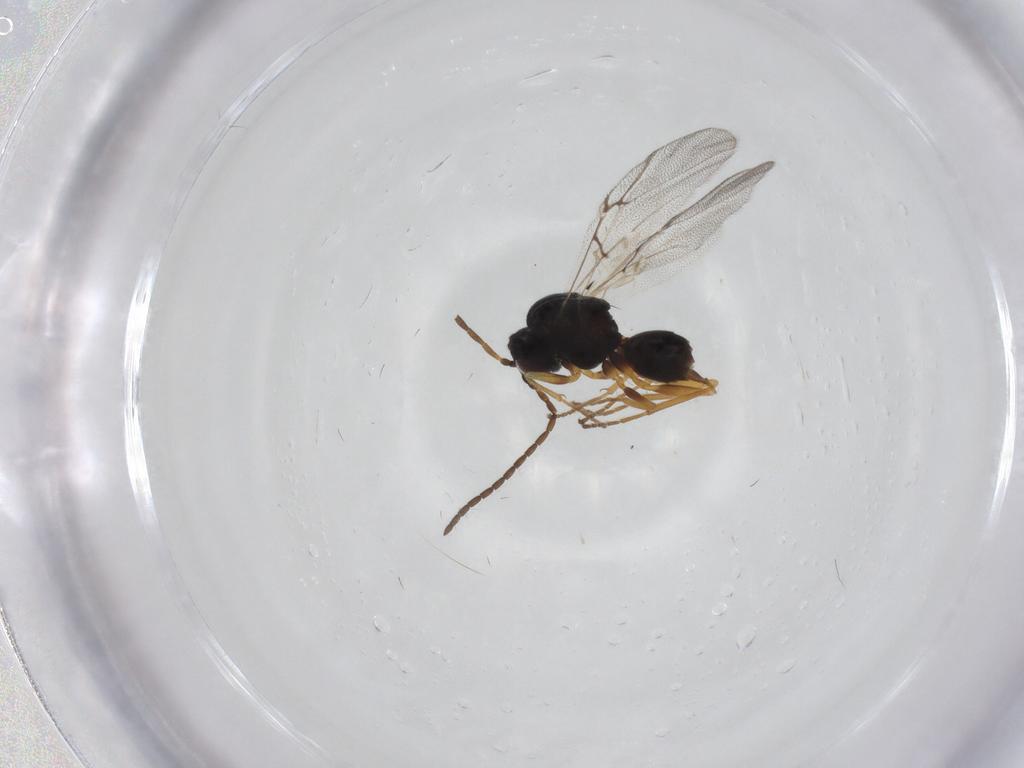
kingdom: Animalia
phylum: Arthropoda
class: Insecta
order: Hymenoptera
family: Cynipidae
